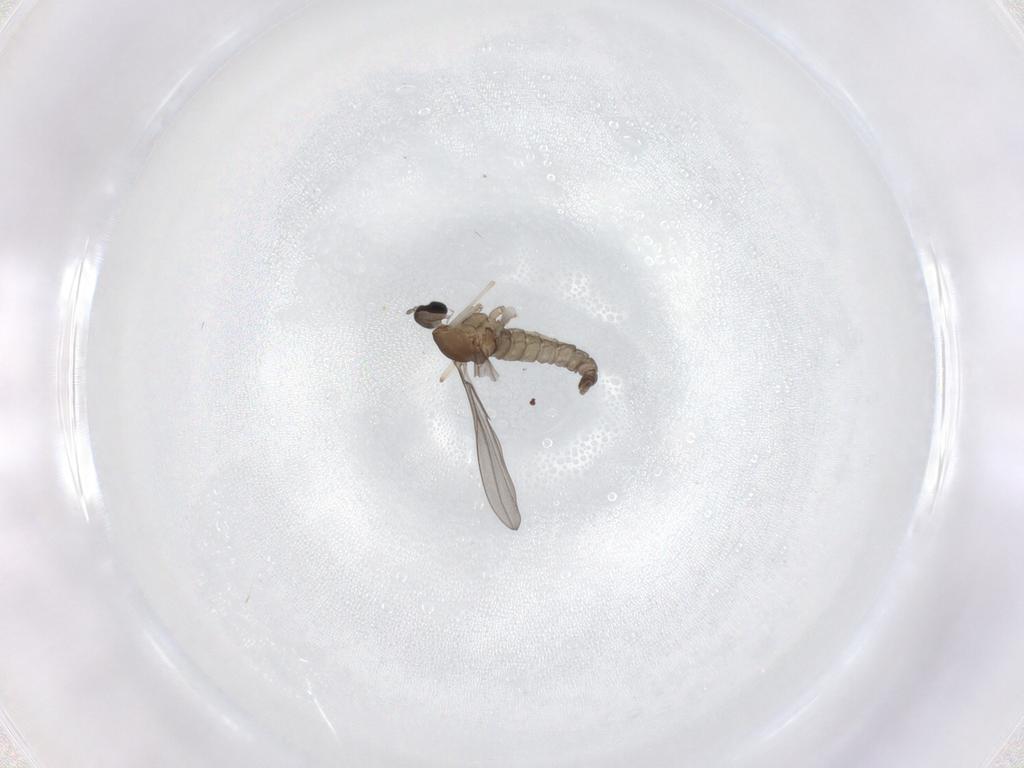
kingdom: Animalia
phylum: Arthropoda
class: Insecta
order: Diptera
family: Cecidomyiidae
